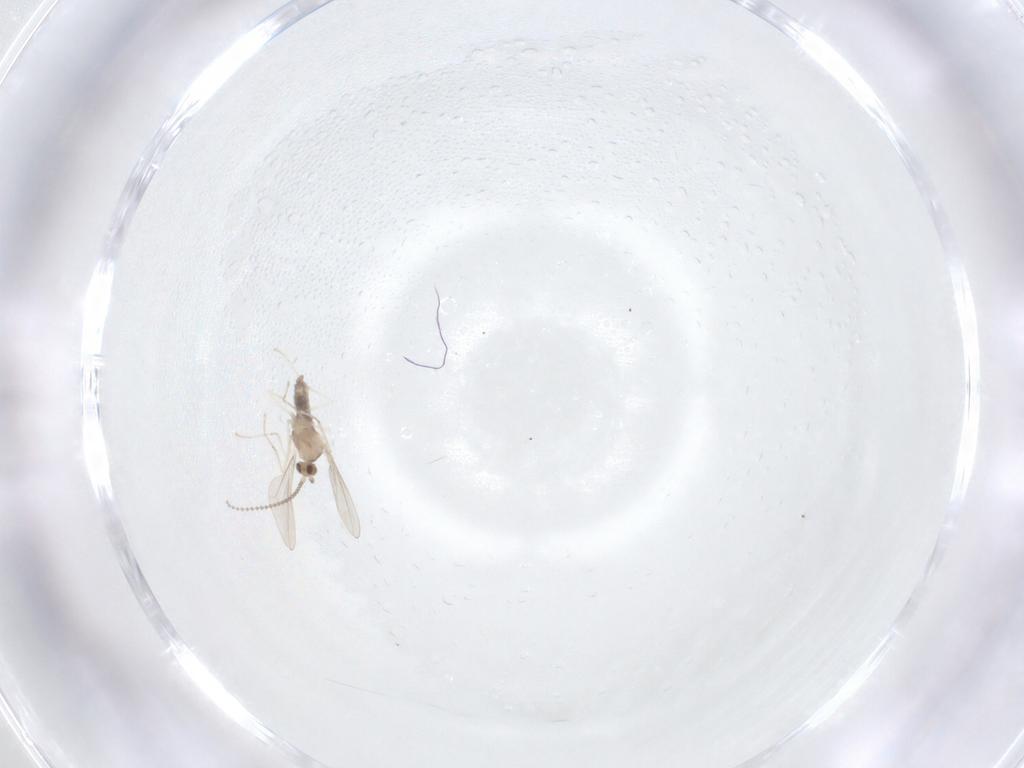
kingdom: Animalia
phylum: Arthropoda
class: Insecta
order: Diptera
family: Cecidomyiidae
